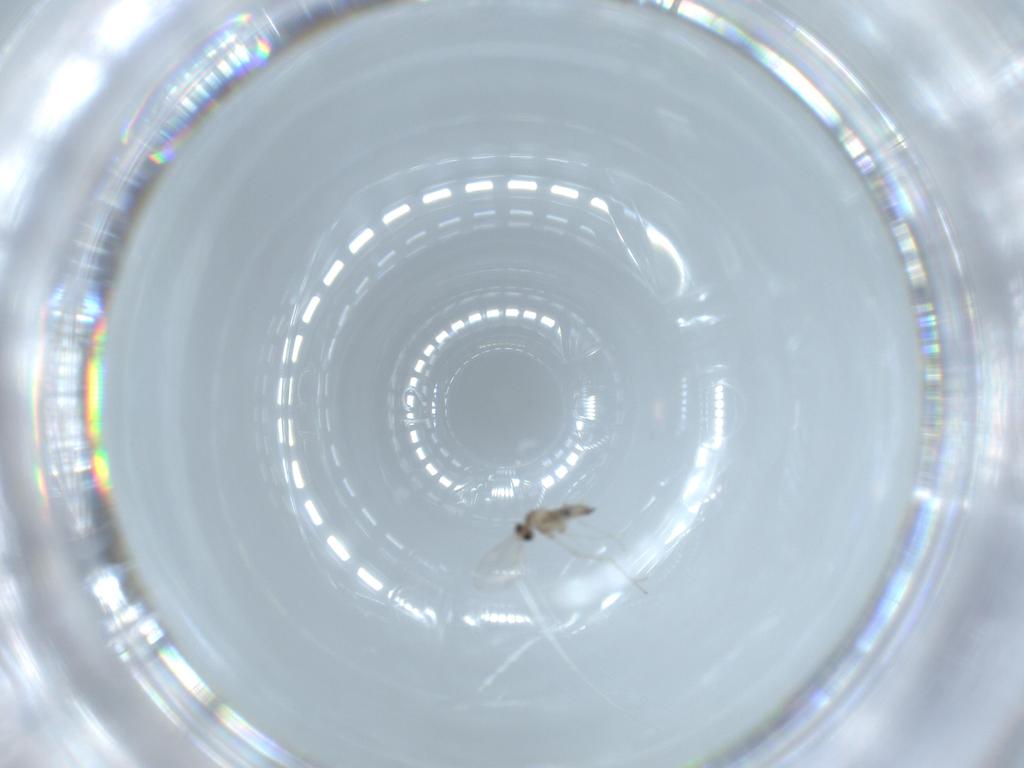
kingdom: Animalia
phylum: Arthropoda
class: Insecta
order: Diptera
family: Cecidomyiidae
